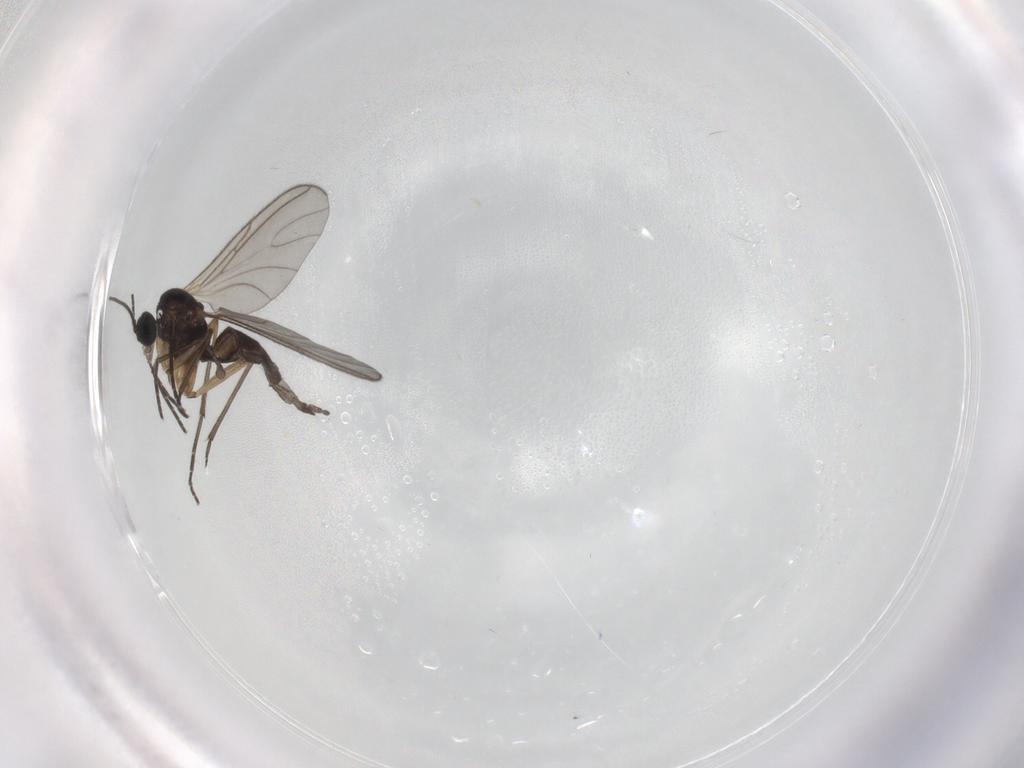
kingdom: Animalia
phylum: Arthropoda
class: Insecta
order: Diptera
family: Sciaridae
